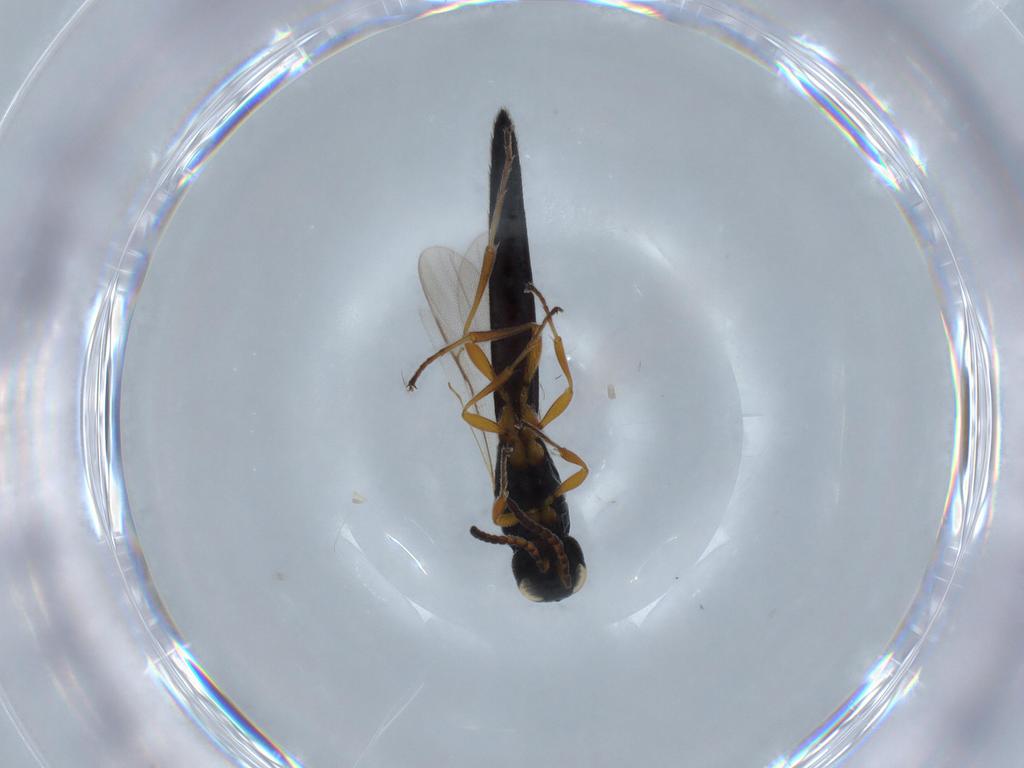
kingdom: Animalia
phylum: Arthropoda
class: Insecta
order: Hymenoptera
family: Scelionidae
